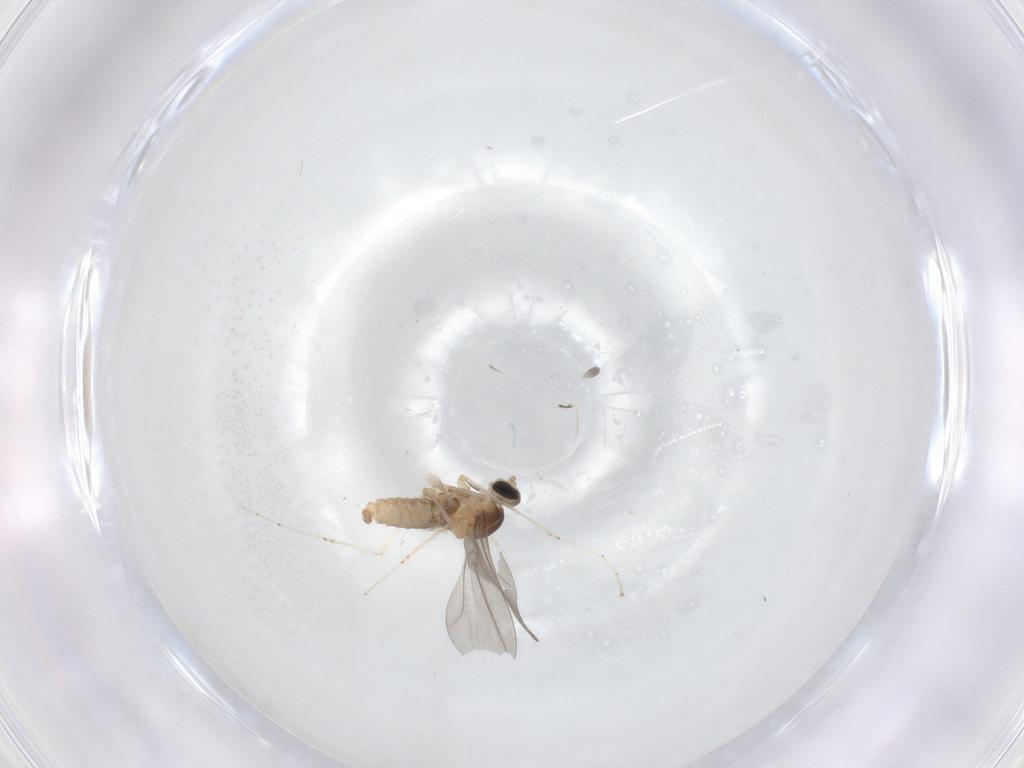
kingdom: Animalia
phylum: Arthropoda
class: Insecta
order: Diptera
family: Cecidomyiidae
